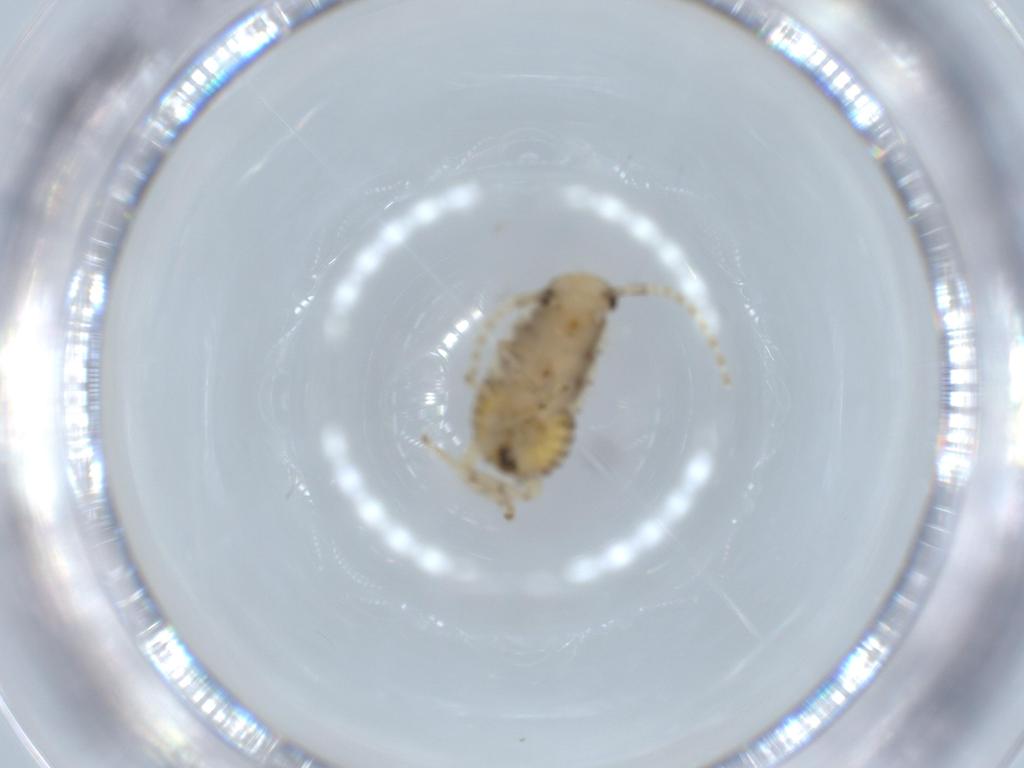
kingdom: Animalia
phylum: Arthropoda
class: Insecta
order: Blattodea
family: Ectobiidae
